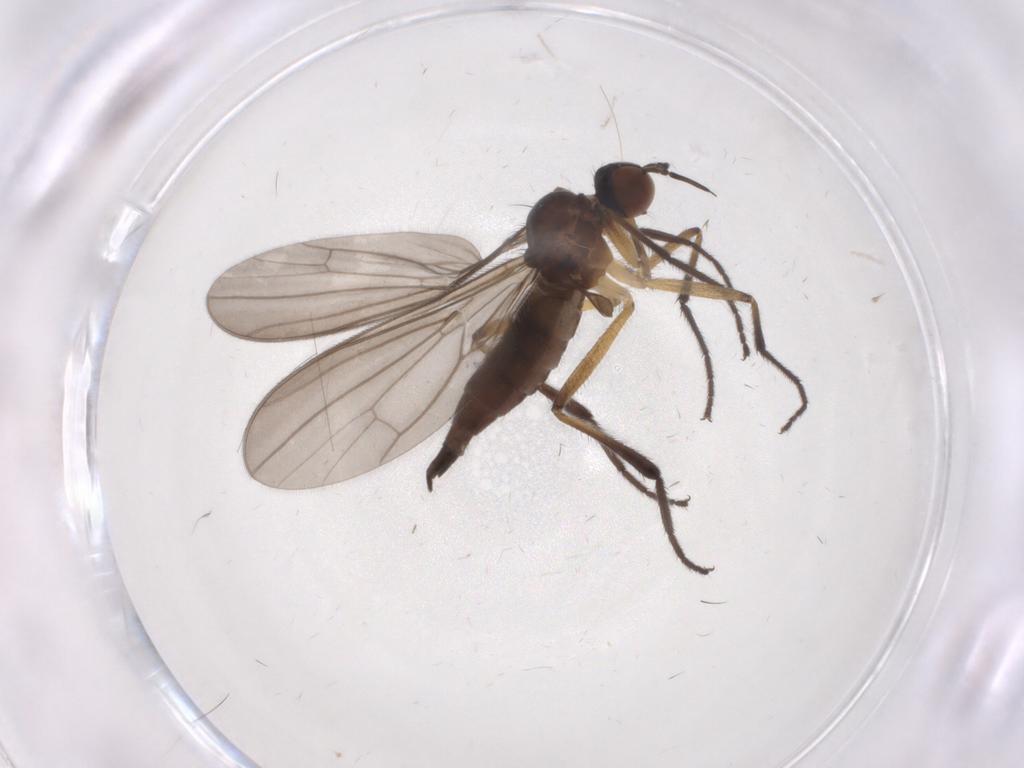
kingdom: Animalia
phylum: Arthropoda
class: Insecta
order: Diptera
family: Empididae
